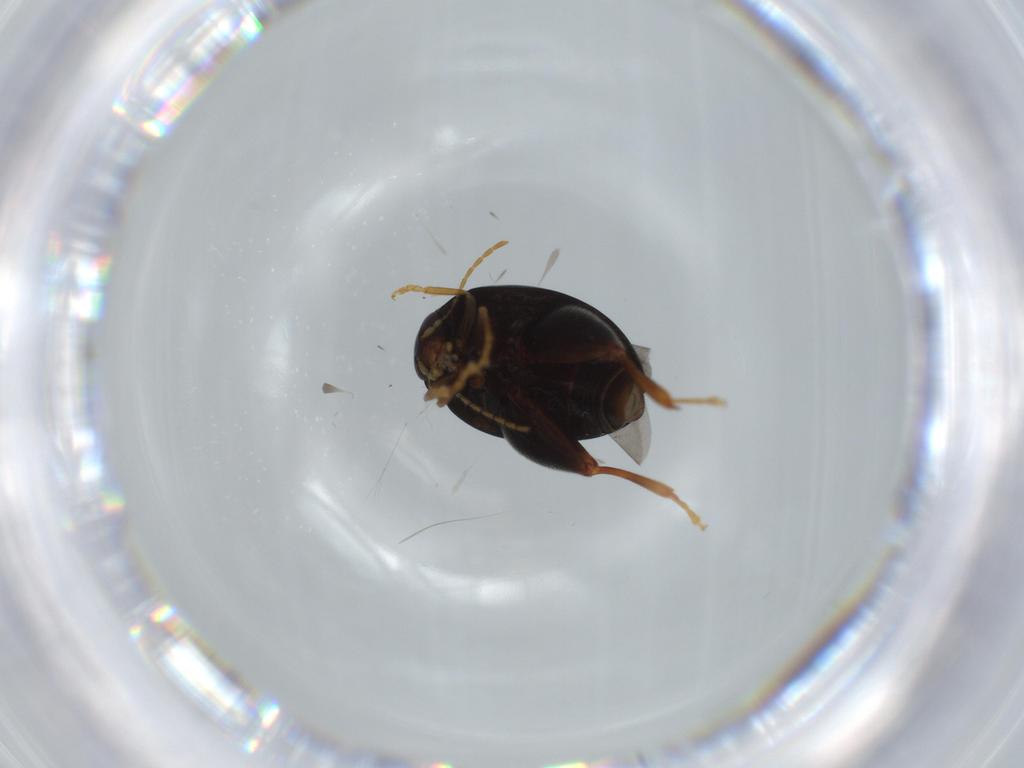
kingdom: Animalia
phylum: Arthropoda
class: Insecta
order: Coleoptera
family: Chrysomelidae
